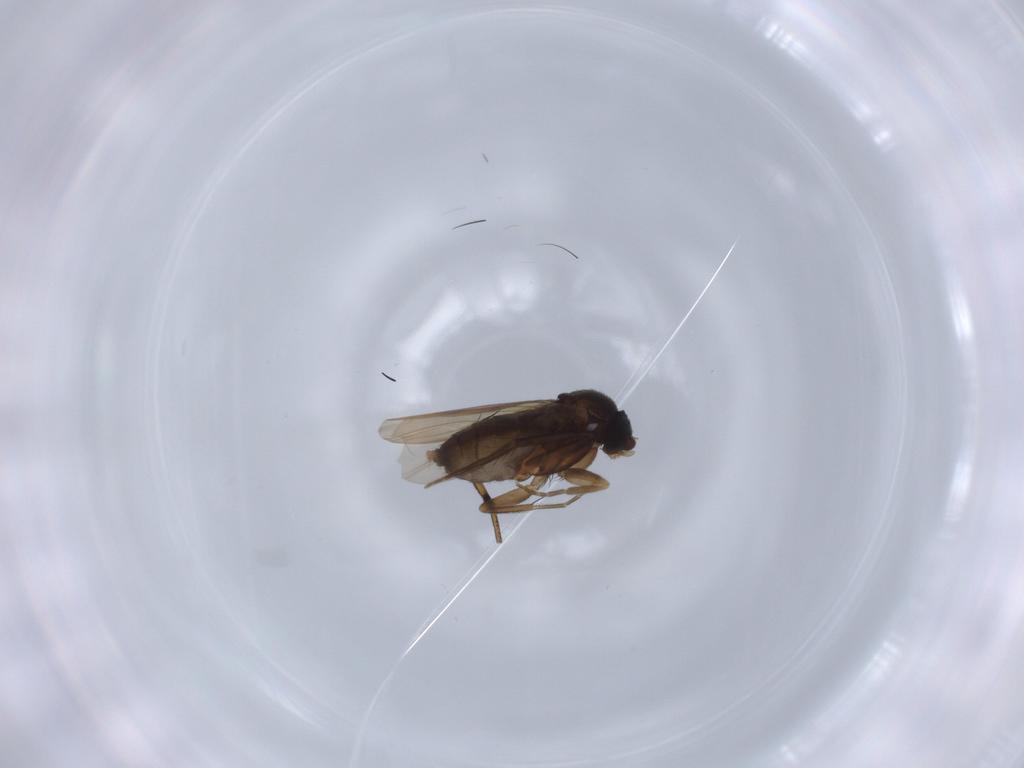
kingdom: Animalia
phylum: Arthropoda
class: Insecta
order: Diptera
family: Phoridae
